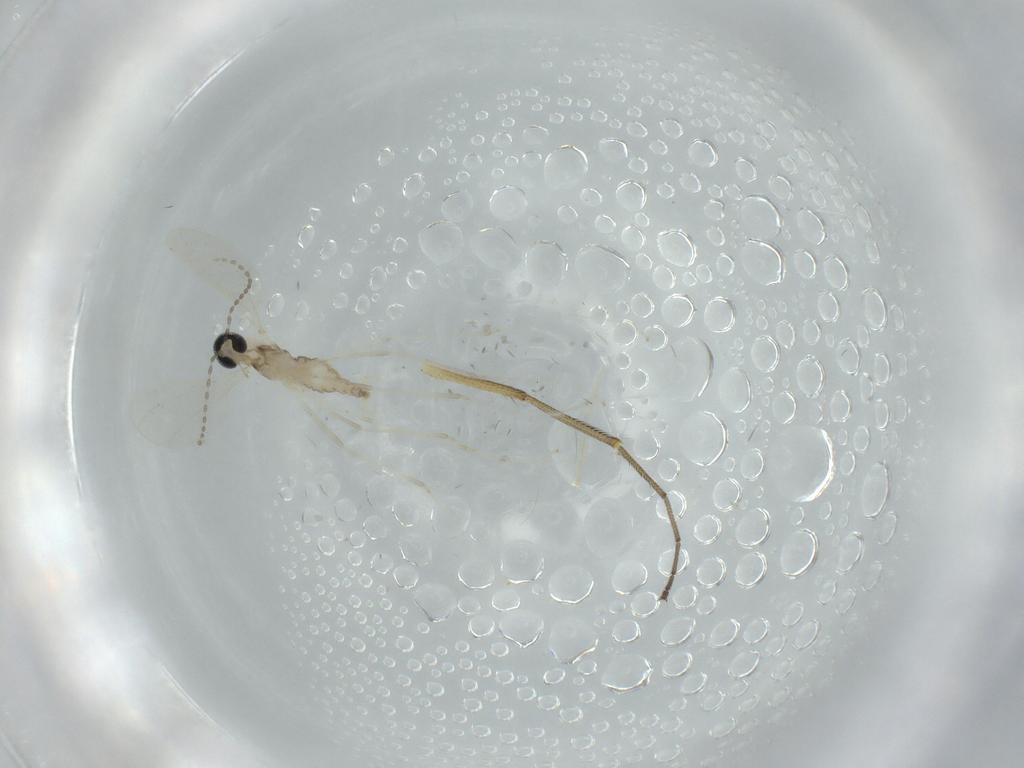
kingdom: Animalia
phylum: Arthropoda
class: Insecta
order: Diptera
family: Cecidomyiidae
